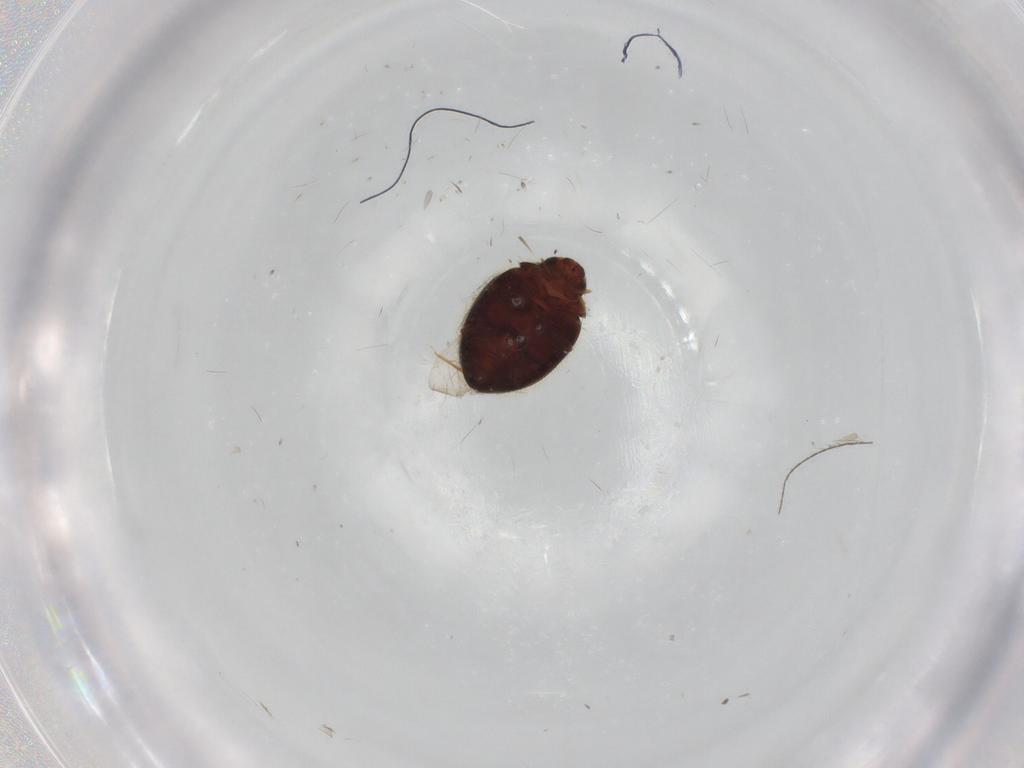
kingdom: Animalia
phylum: Arthropoda
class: Insecta
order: Coleoptera
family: Coccinellidae
